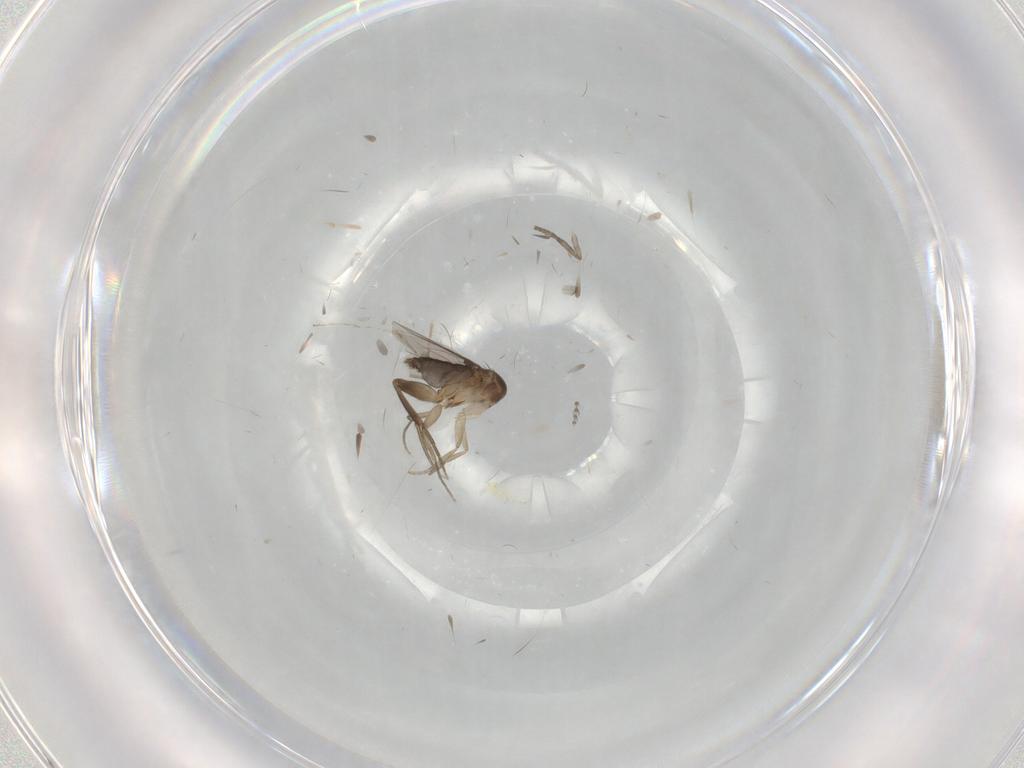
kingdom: Animalia
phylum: Arthropoda
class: Insecta
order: Diptera
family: Phoridae
